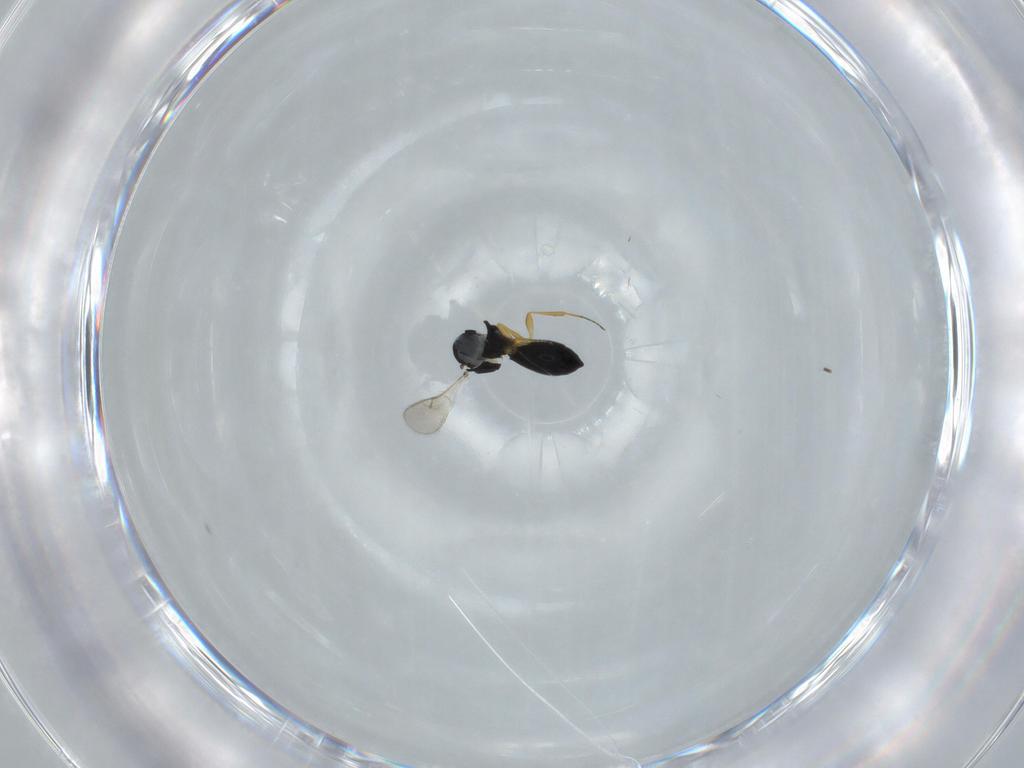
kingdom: Animalia
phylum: Arthropoda
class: Insecta
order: Hymenoptera
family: Scelionidae
